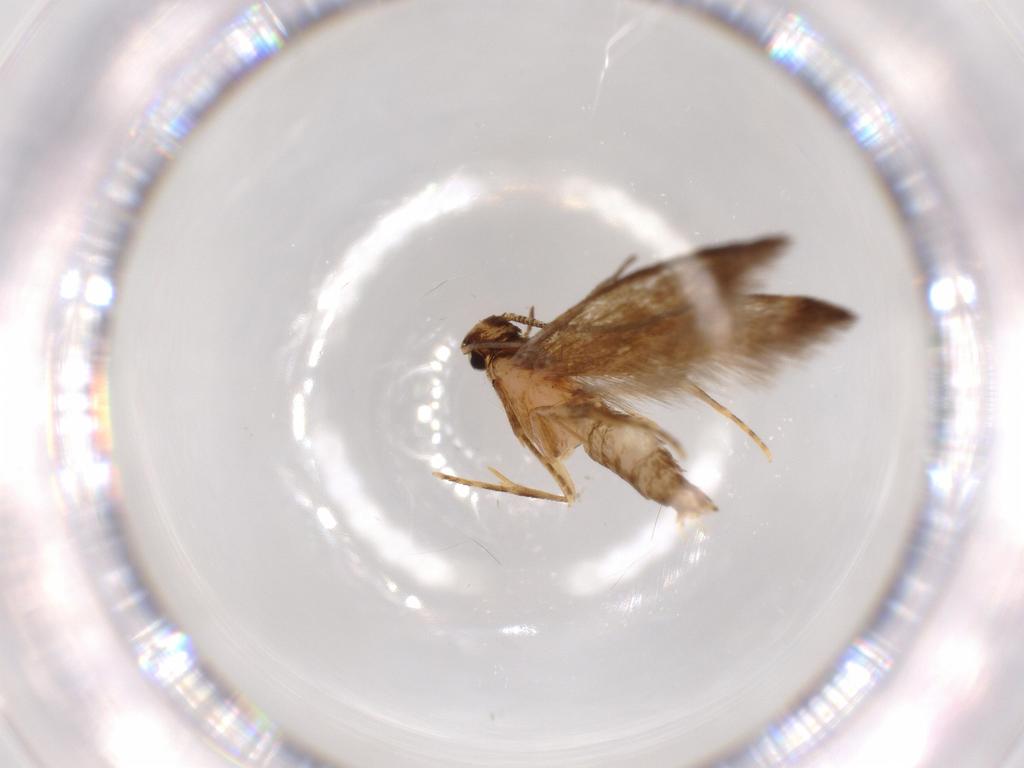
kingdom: Animalia
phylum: Arthropoda
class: Insecta
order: Lepidoptera
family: Tineidae
